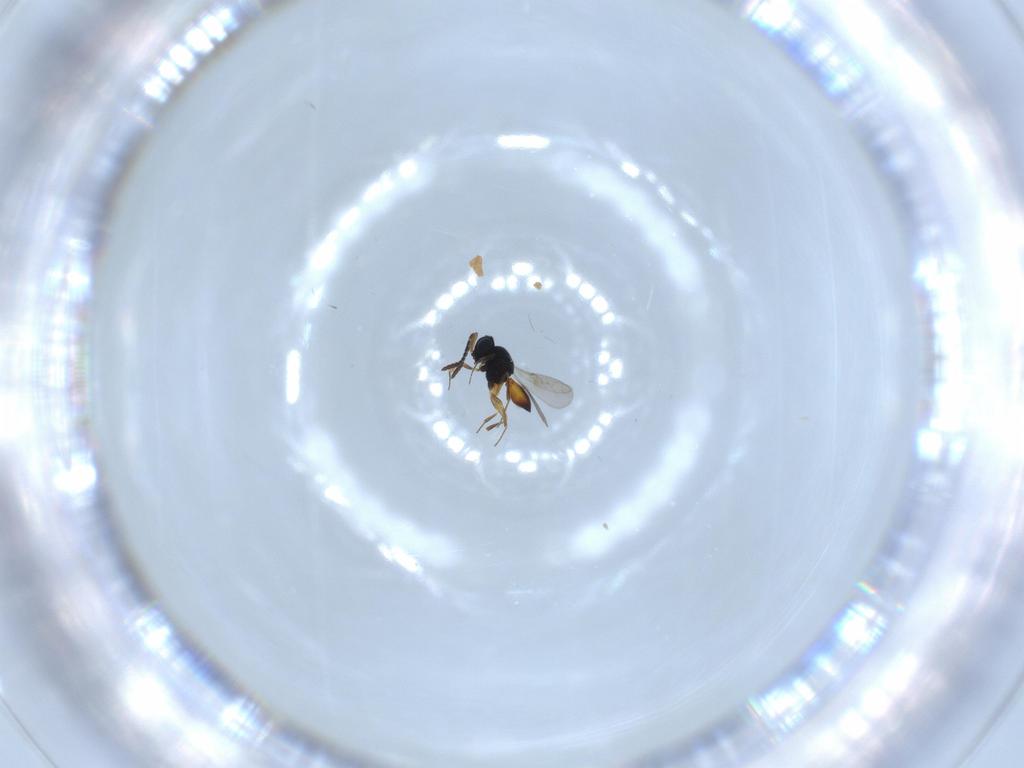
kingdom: Animalia
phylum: Arthropoda
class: Insecta
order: Hymenoptera
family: Scelionidae
